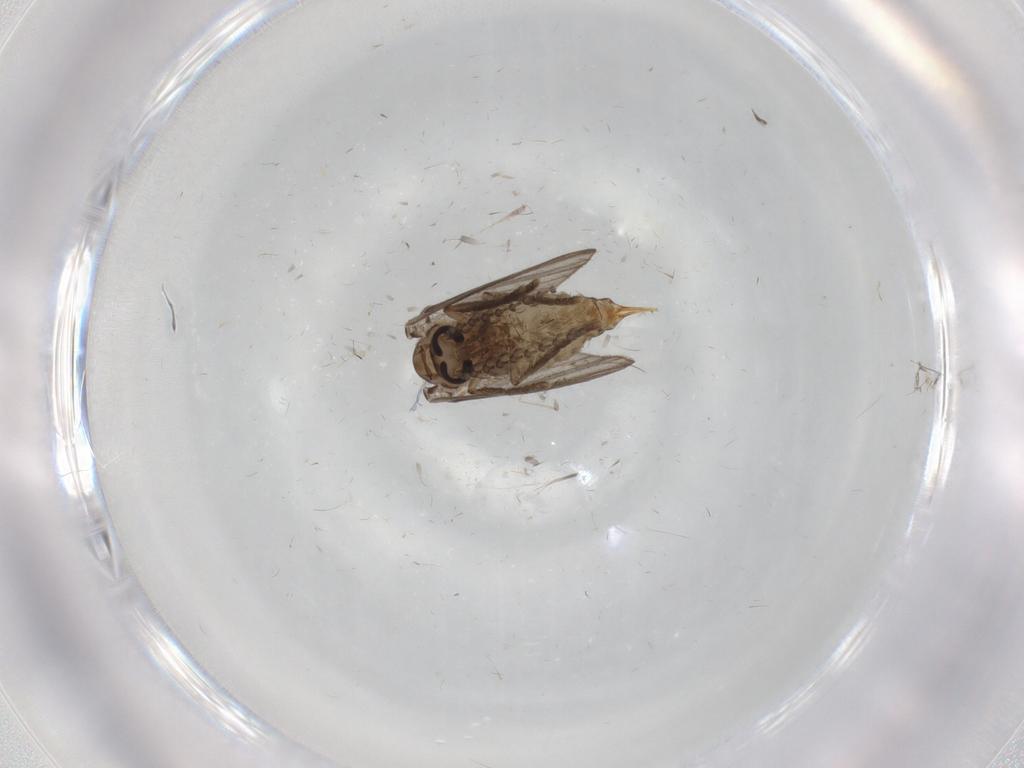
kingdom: Animalia
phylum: Arthropoda
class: Insecta
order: Diptera
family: Psychodidae
